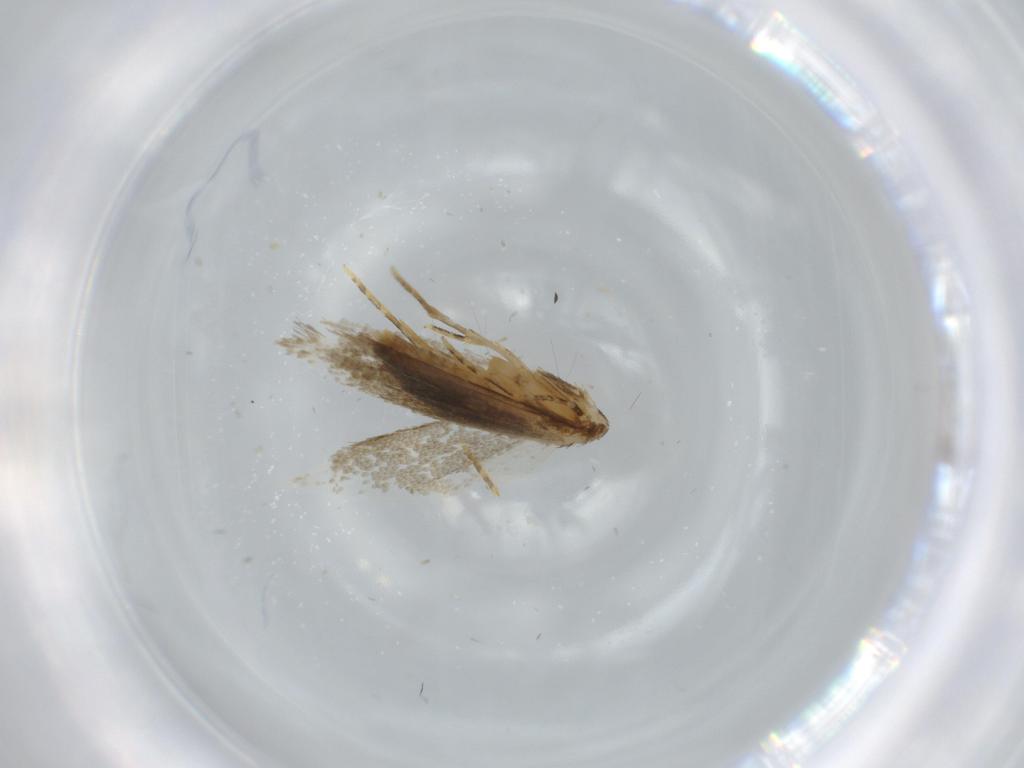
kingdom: Animalia
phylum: Arthropoda
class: Insecta
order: Lepidoptera
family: Tineidae
